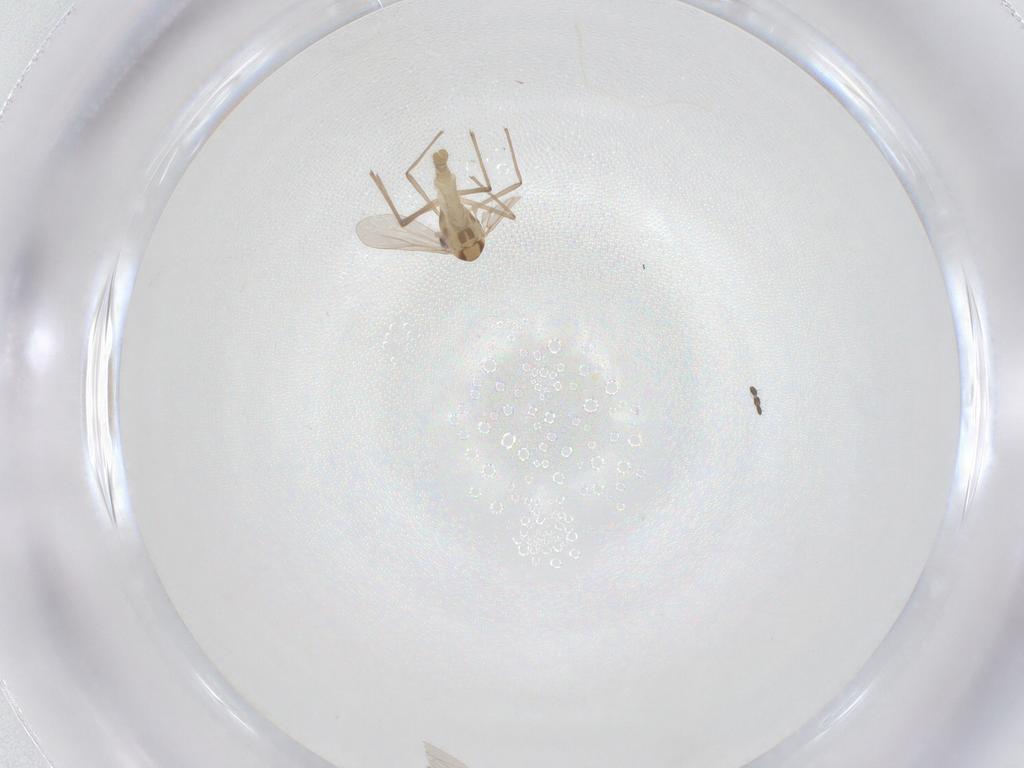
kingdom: Animalia
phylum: Arthropoda
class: Insecta
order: Diptera
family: Limoniidae
